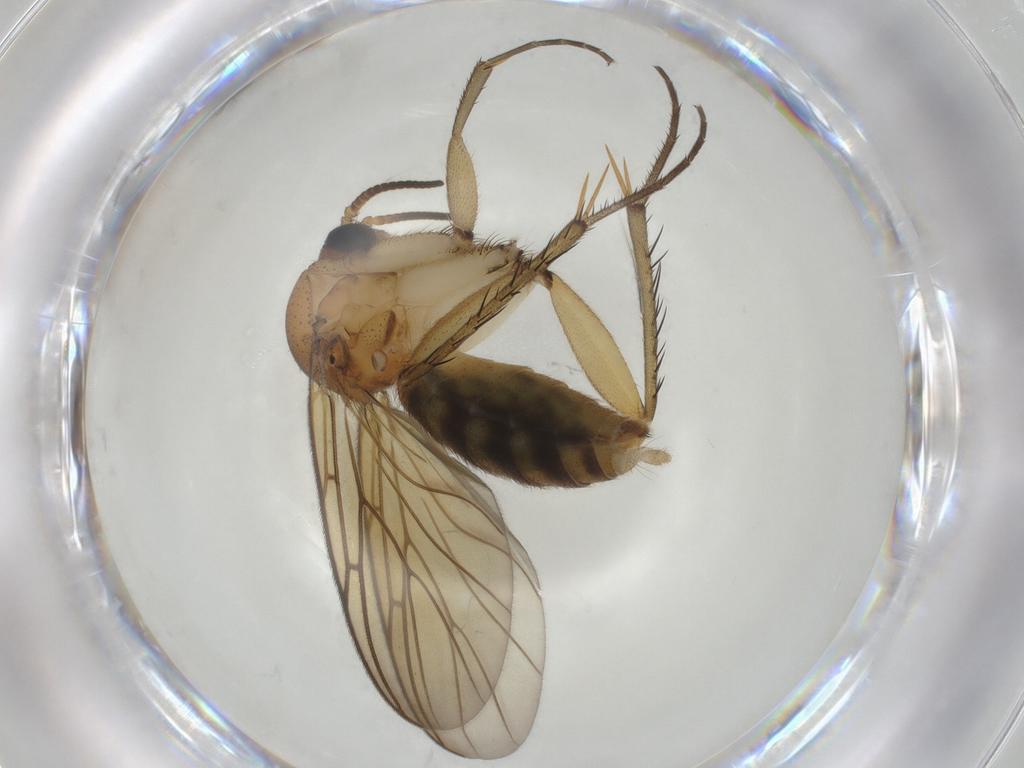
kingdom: Animalia
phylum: Arthropoda
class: Insecta
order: Diptera
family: Mycetophilidae
